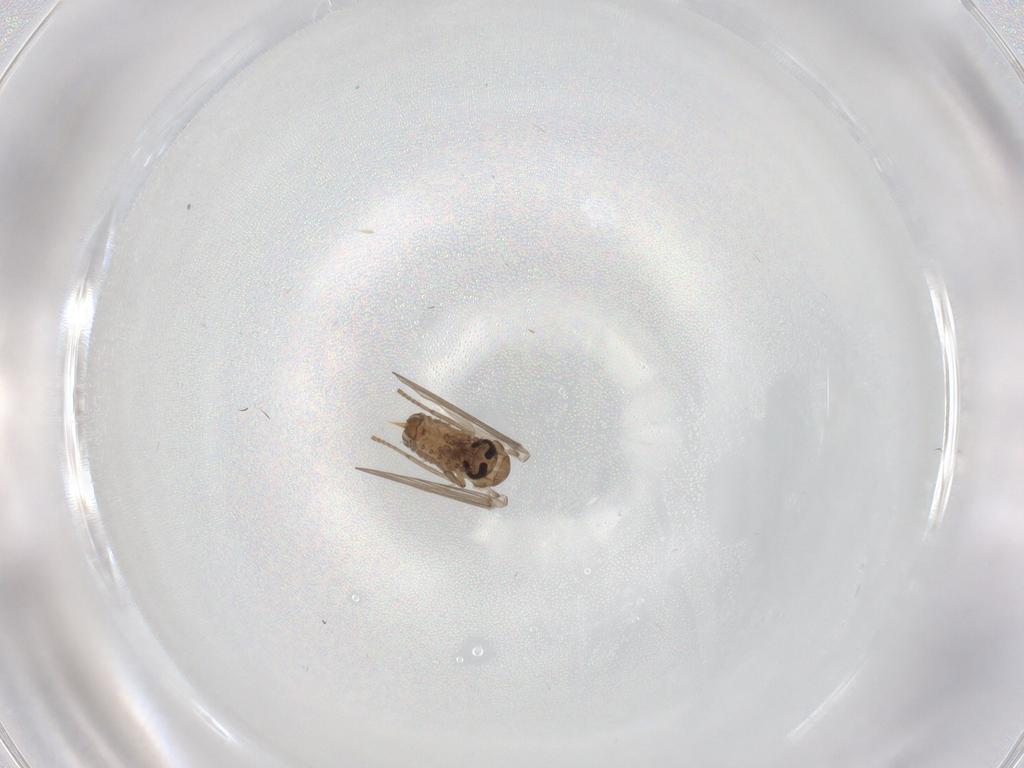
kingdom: Animalia
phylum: Arthropoda
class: Insecta
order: Diptera
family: Psychodidae
